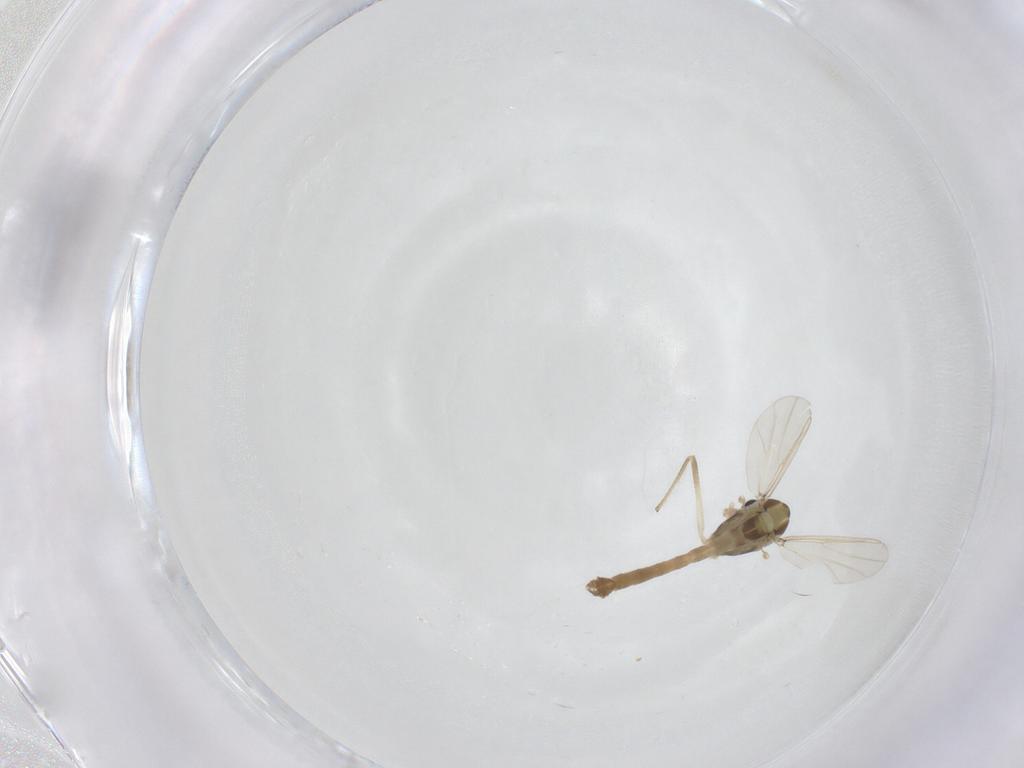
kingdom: Animalia
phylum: Arthropoda
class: Insecta
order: Diptera
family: Chironomidae
